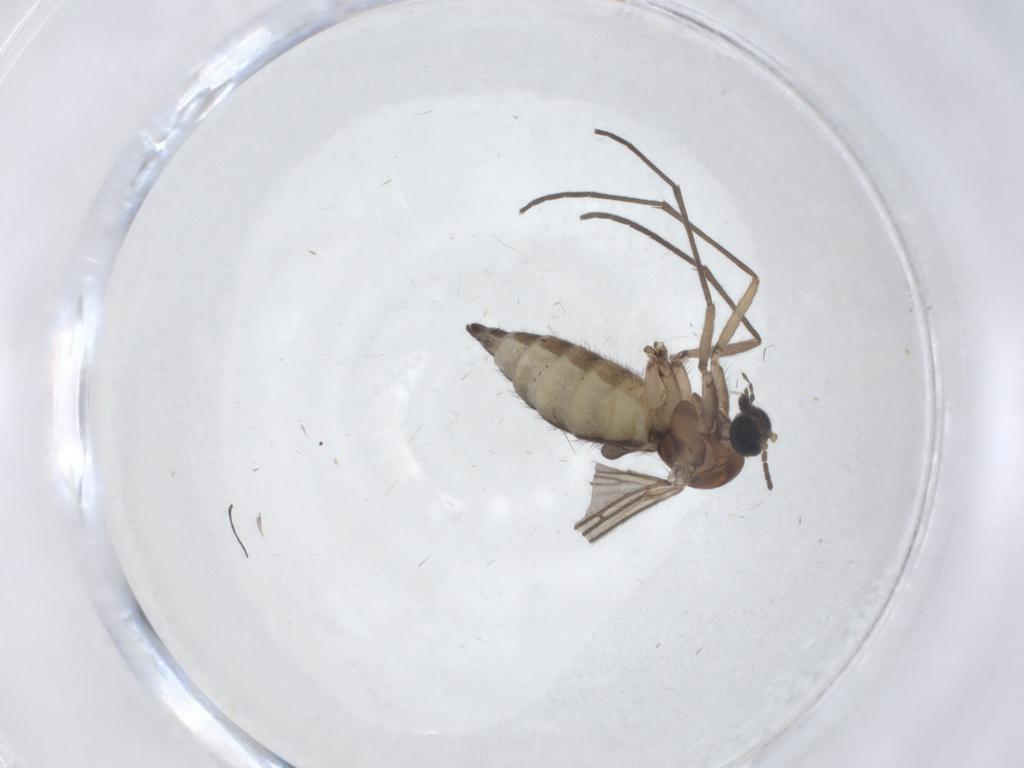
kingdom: Animalia
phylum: Arthropoda
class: Insecta
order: Diptera
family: Sciaridae
